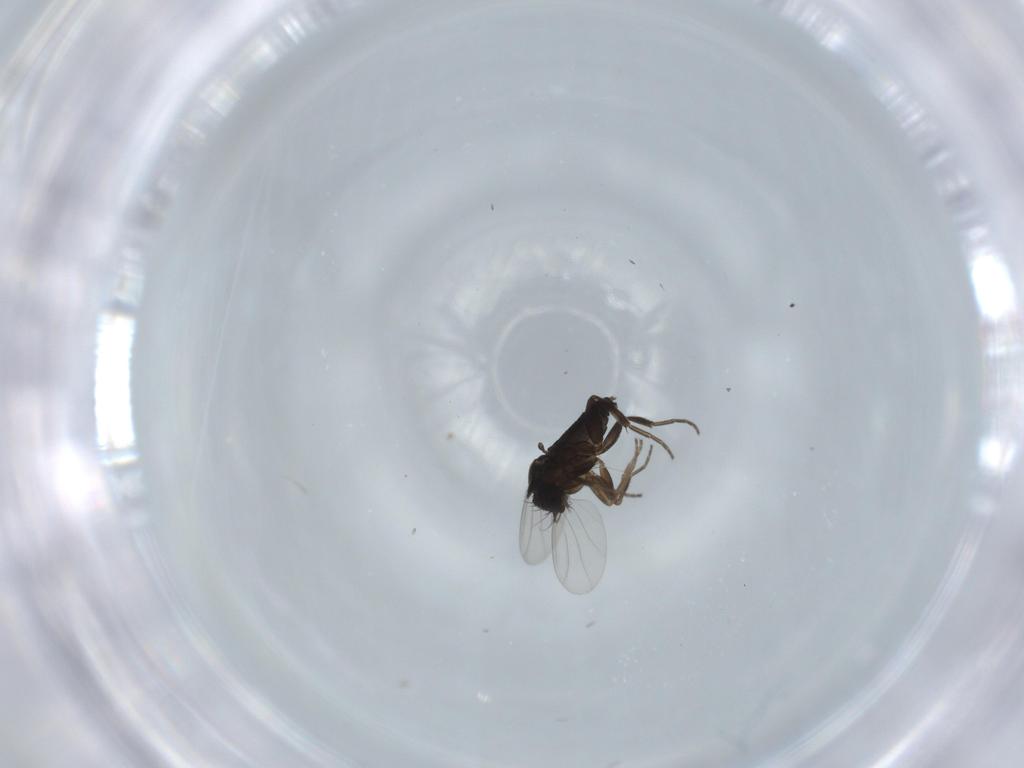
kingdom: Animalia
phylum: Arthropoda
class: Insecta
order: Diptera
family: Phoridae
